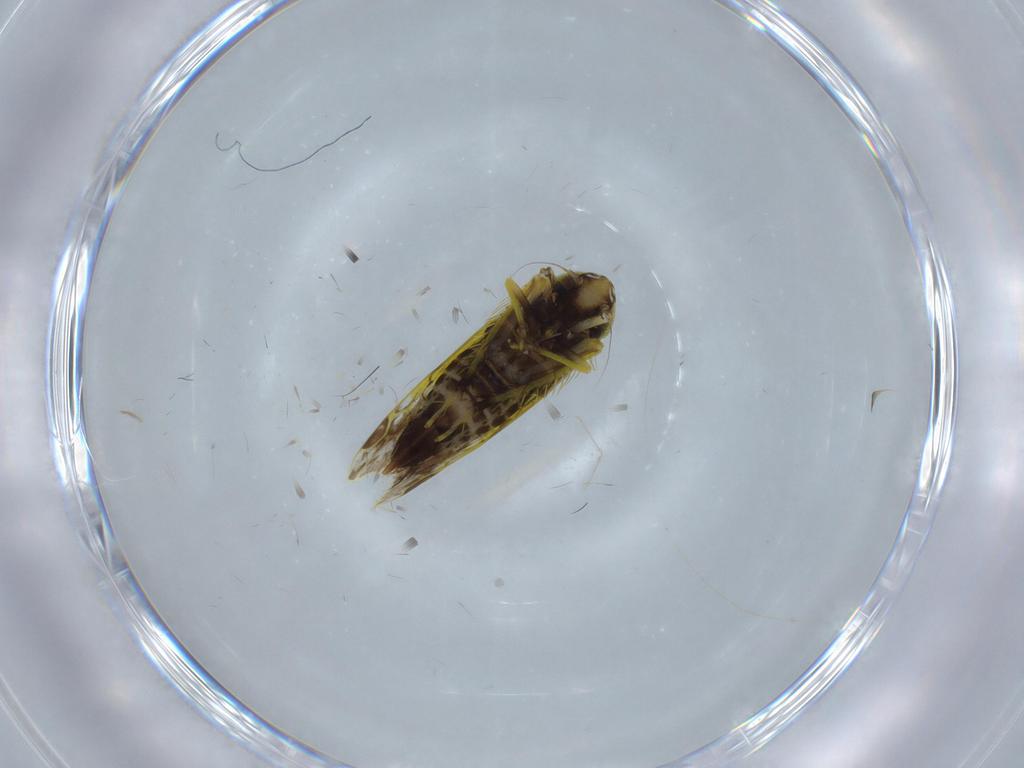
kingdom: Animalia
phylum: Arthropoda
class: Insecta
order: Hemiptera
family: Cicadellidae
